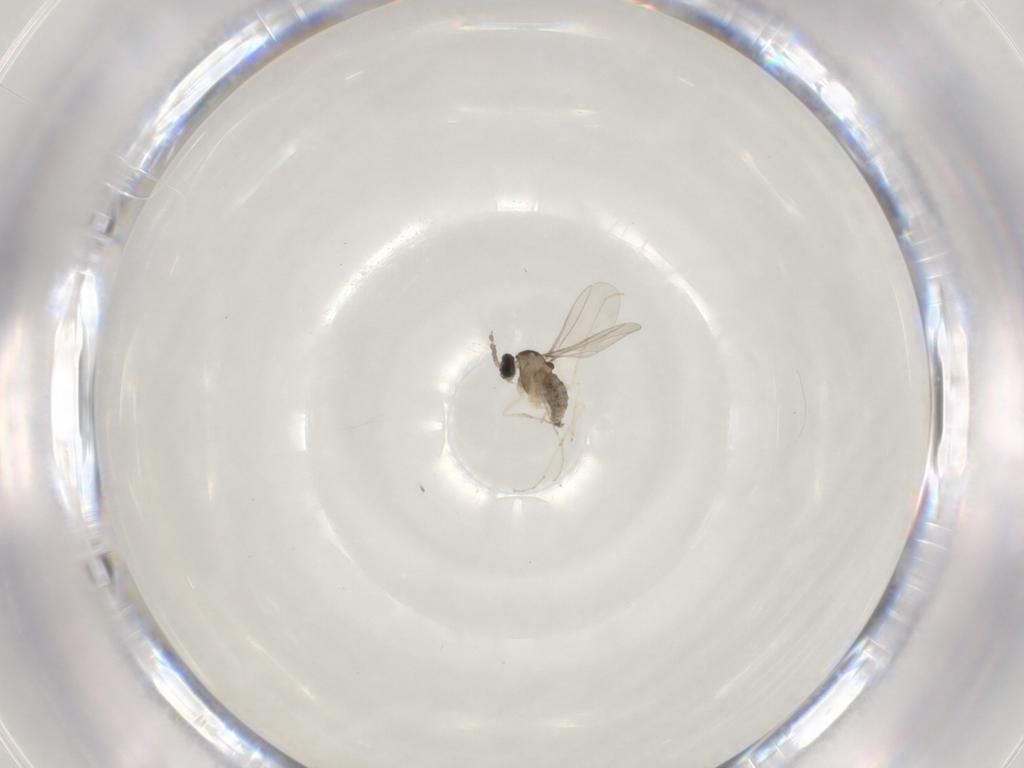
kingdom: Animalia
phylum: Arthropoda
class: Insecta
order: Diptera
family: Cecidomyiidae
